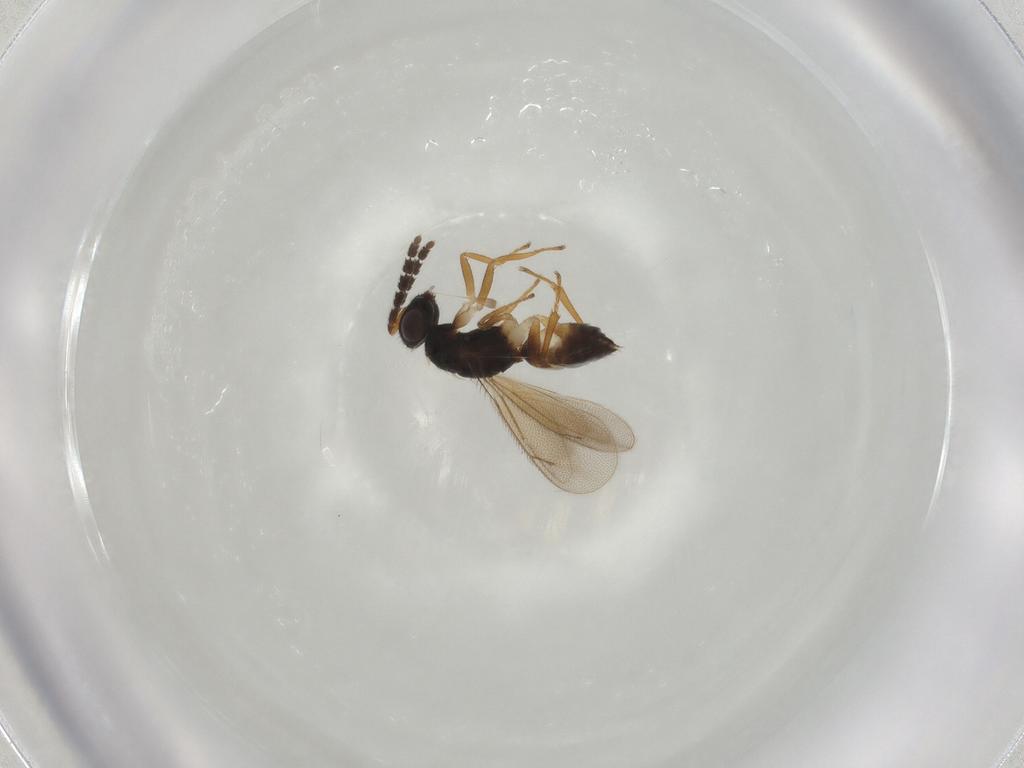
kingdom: Animalia
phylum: Arthropoda
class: Insecta
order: Hymenoptera
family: Eulophidae
